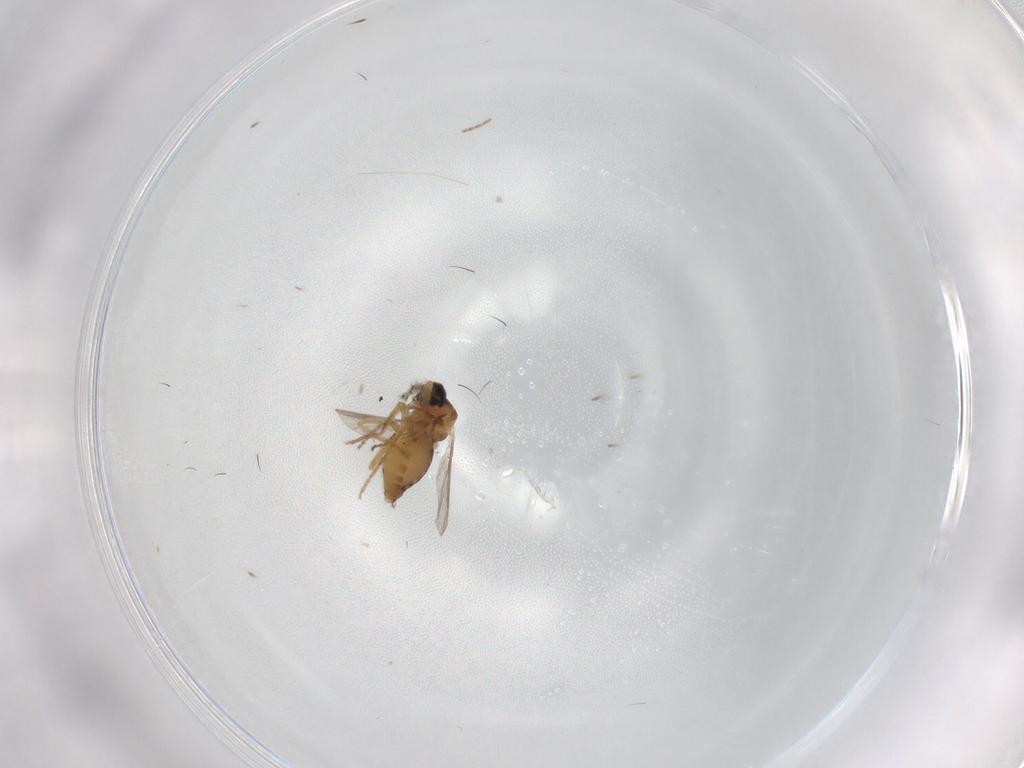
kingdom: Animalia
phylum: Arthropoda
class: Insecta
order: Diptera
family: Ceratopogonidae
